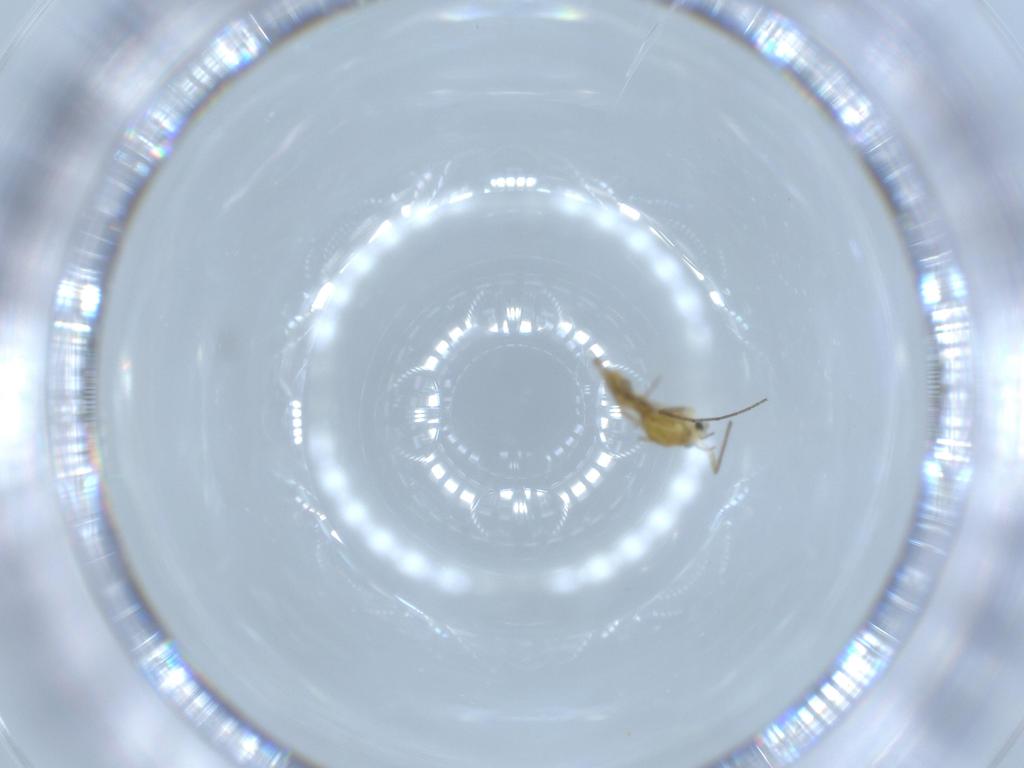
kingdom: Animalia
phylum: Arthropoda
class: Insecta
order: Diptera
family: Chironomidae
